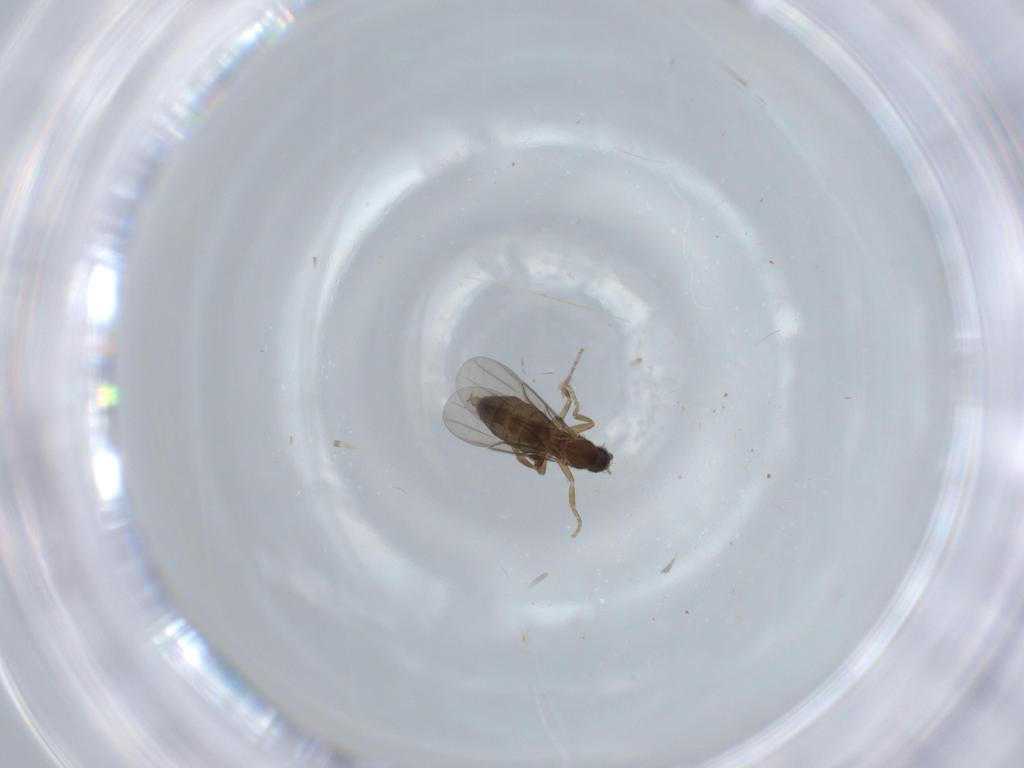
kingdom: Animalia
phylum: Arthropoda
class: Insecta
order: Diptera
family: Phoridae
